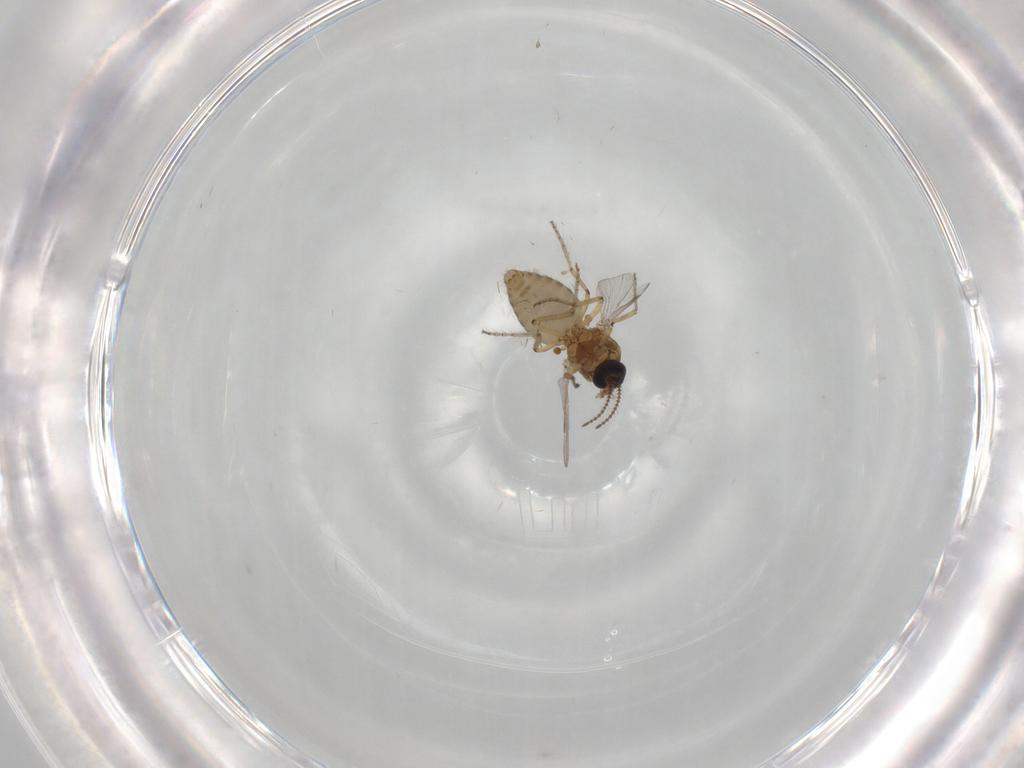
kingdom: Animalia
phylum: Arthropoda
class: Insecta
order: Diptera
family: Ceratopogonidae
